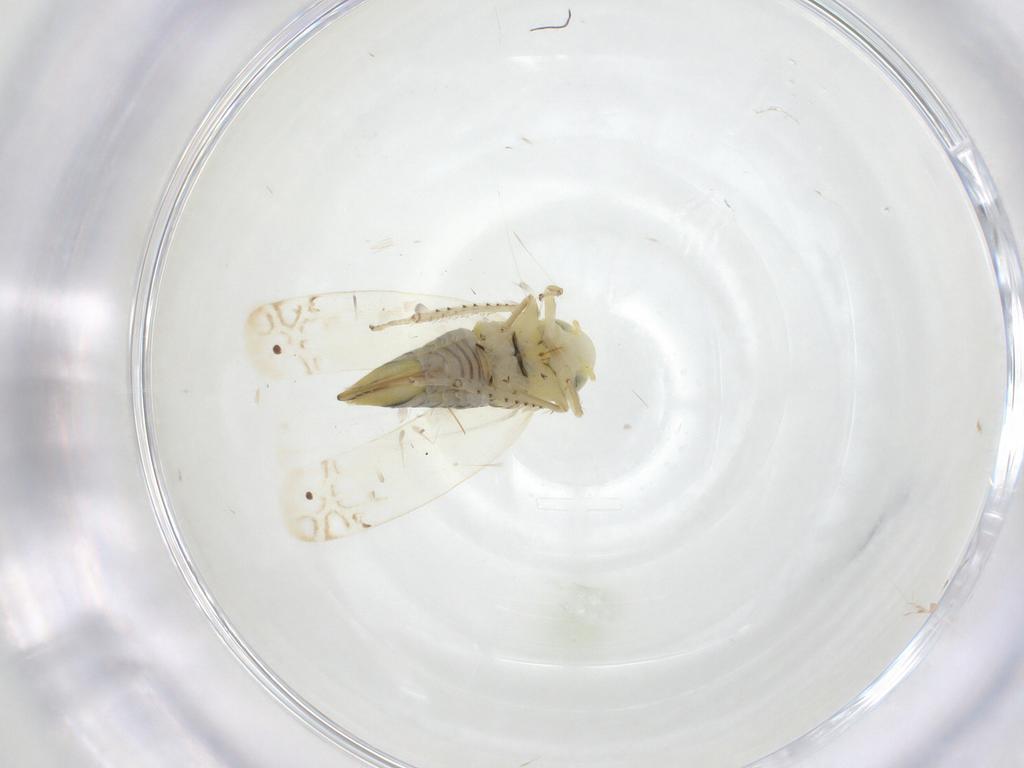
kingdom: Animalia
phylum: Arthropoda
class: Insecta
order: Hemiptera
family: Cicadellidae
